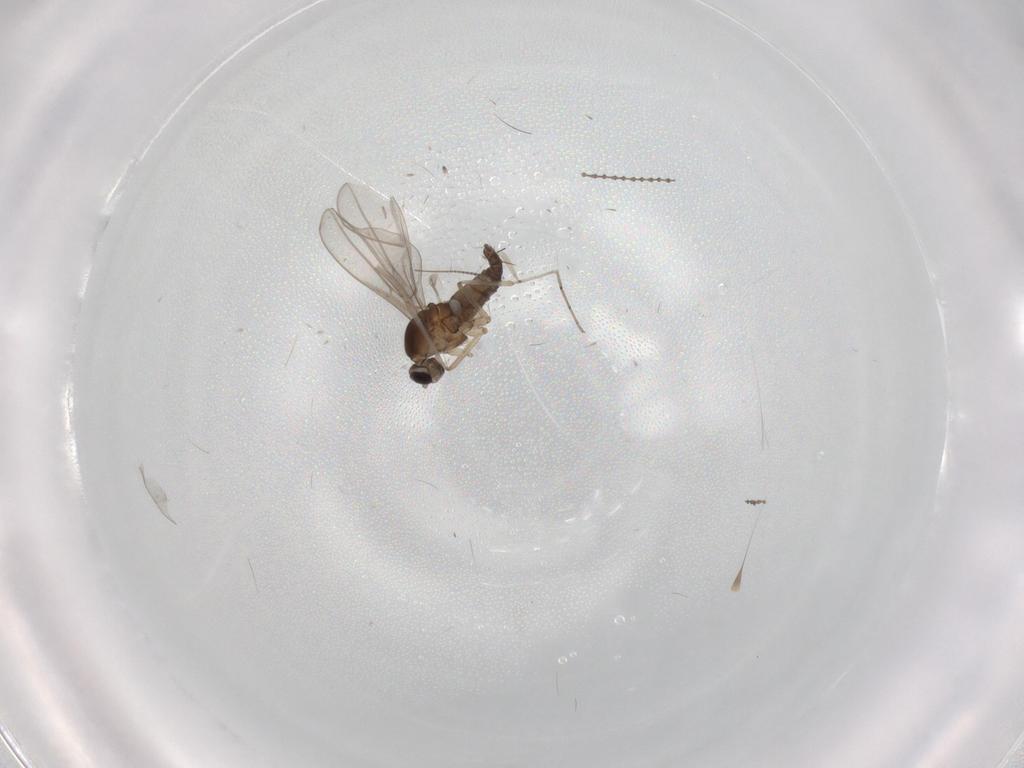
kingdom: Animalia
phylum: Arthropoda
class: Insecta
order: Diptera
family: Cecidomyiidae
